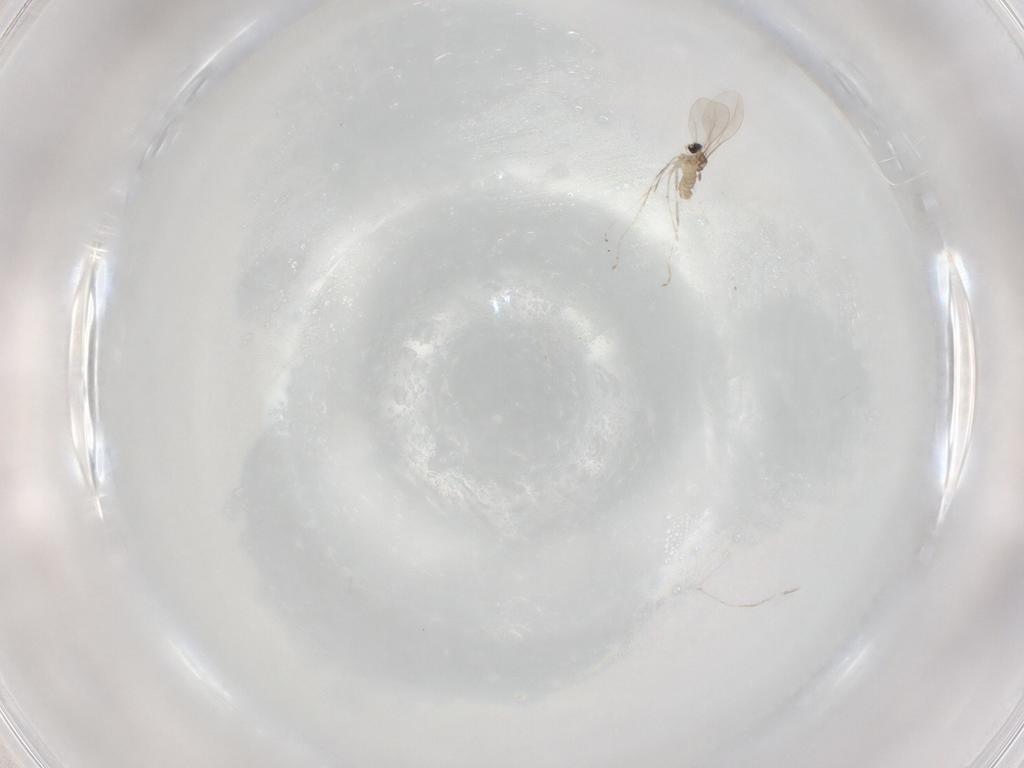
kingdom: Animalia
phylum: Arthropoda
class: Insecta
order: Diptera
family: Cecidomyiidae
